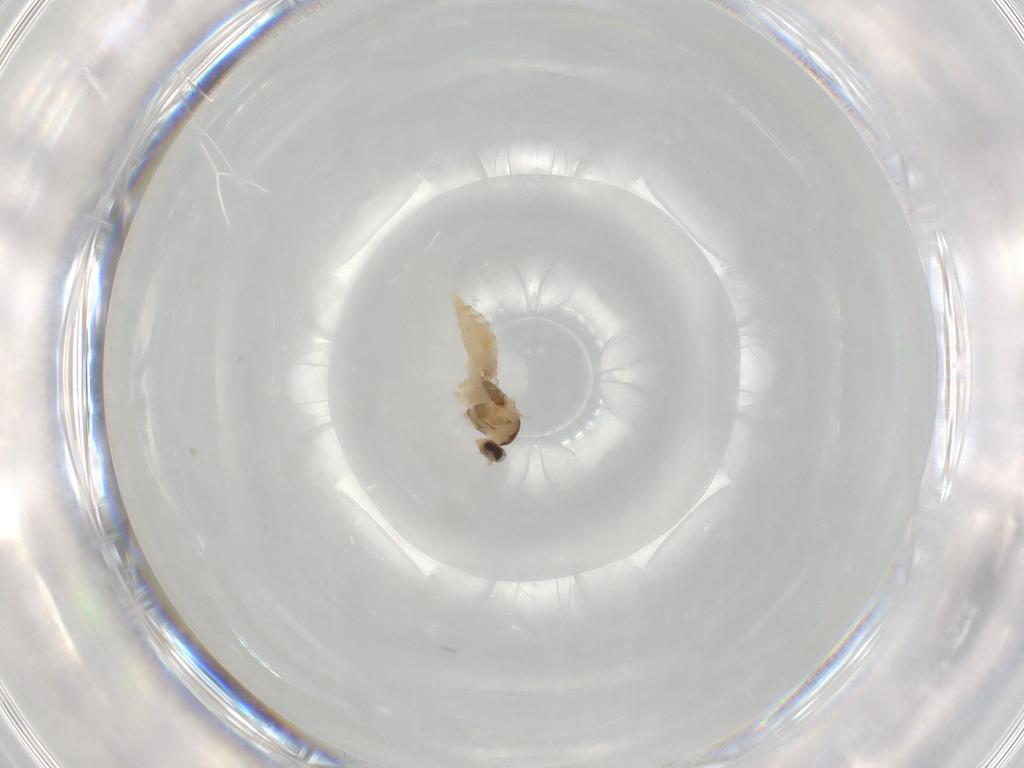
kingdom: Animalia
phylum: Arthropoda
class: Insecta
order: Diptera
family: Cecidomyiidae
